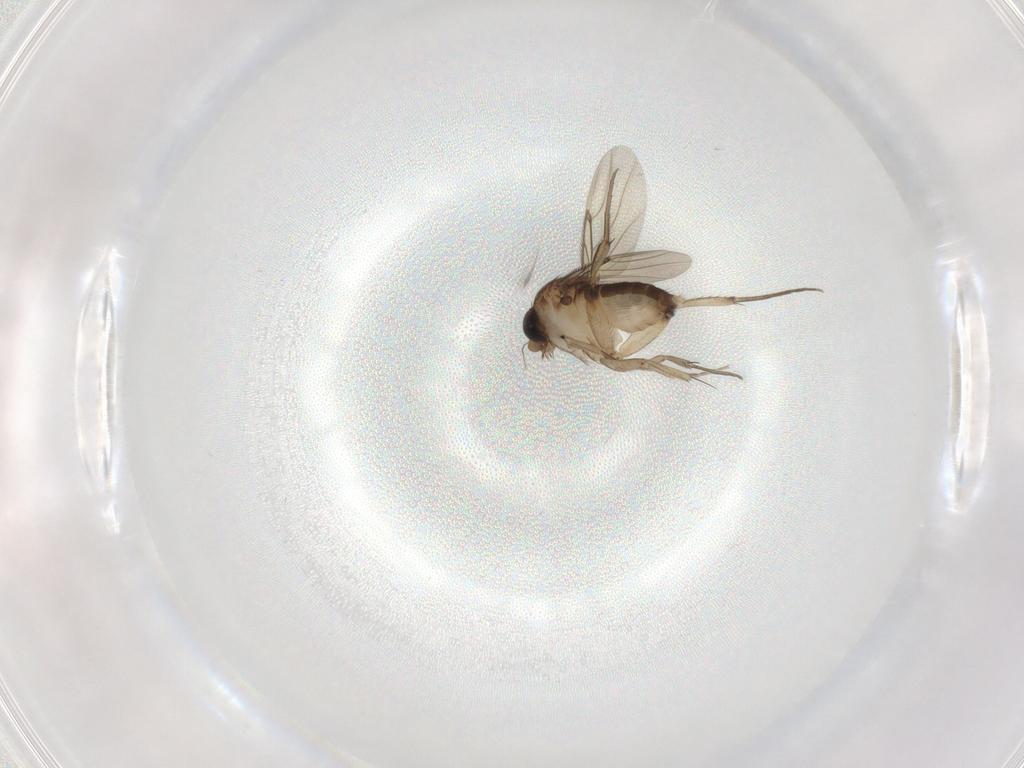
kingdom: Animalia
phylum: Arthropoda
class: Insecta
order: Diptera
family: Phoridae
